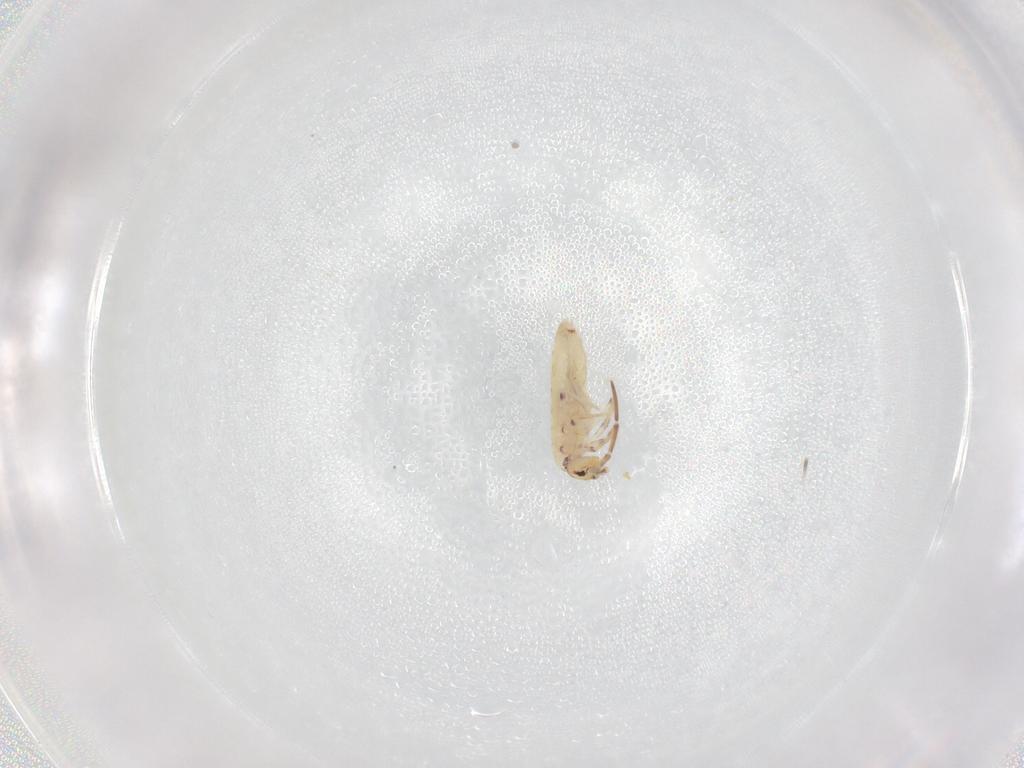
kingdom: Animalia
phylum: Arthropoda
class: Collembola
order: Entomobryomorpha
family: Entomobryidae
